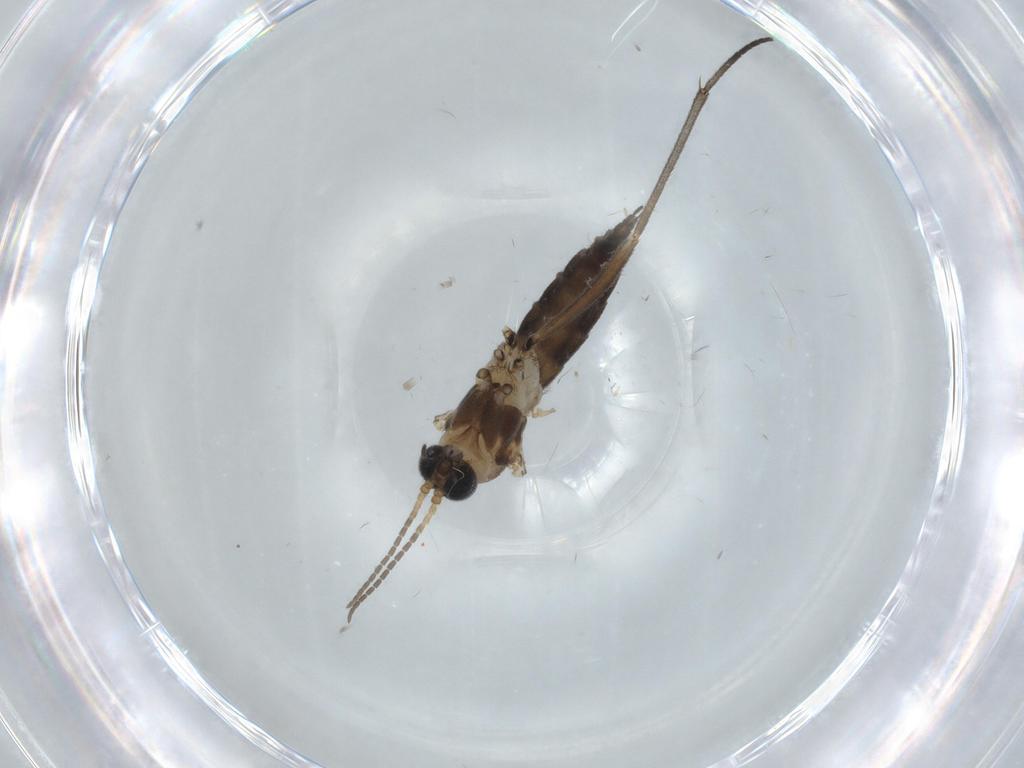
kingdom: Animalia
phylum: Arthropoda
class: Insecta
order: Diptera
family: Sciaridae
